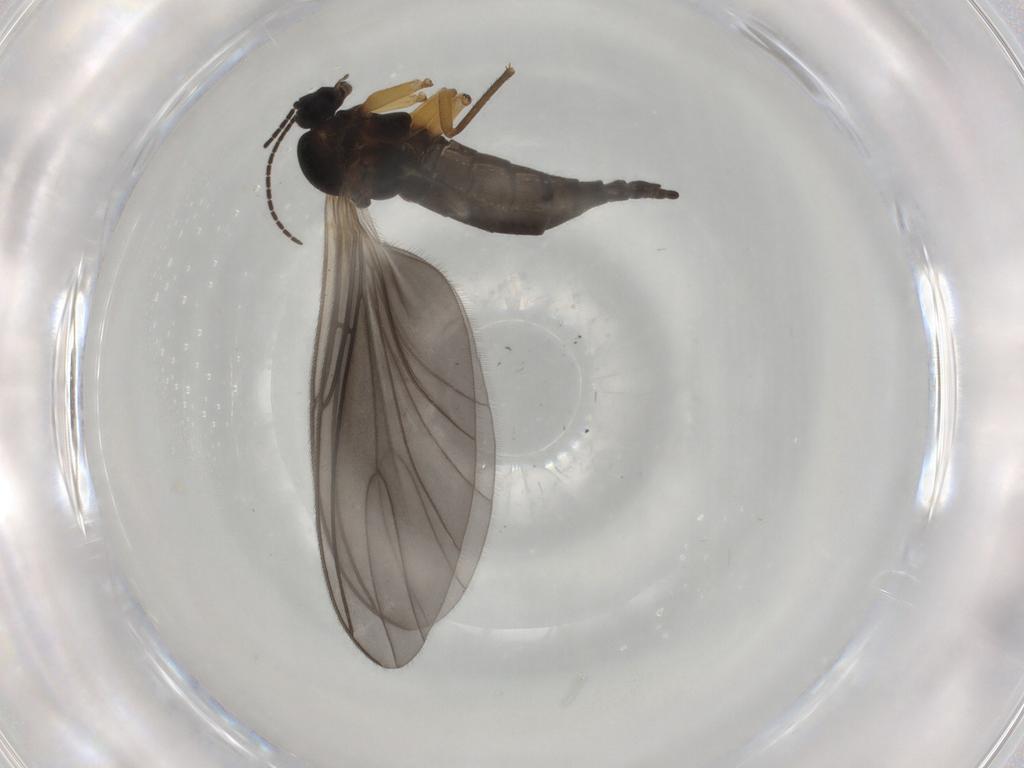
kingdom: Animalia
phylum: Arthropoda
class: Insecta
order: Diptera
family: Sciaridae
